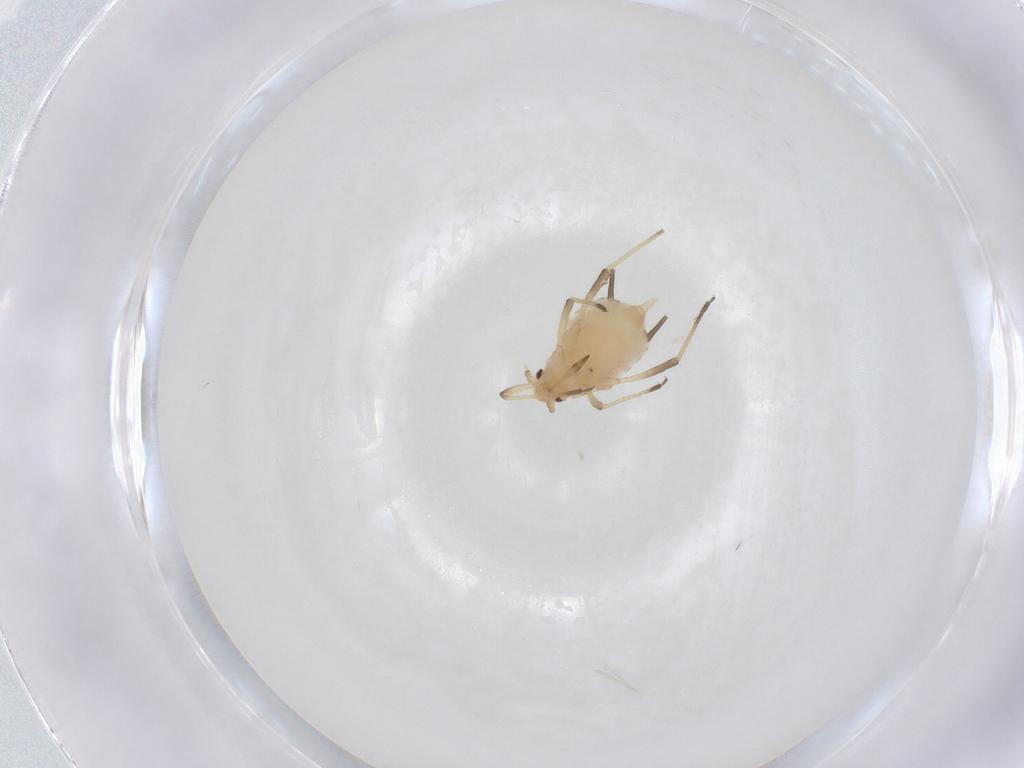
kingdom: Animalia
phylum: Arthropoda
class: Insecta
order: Hemiptera
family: Aphididae
